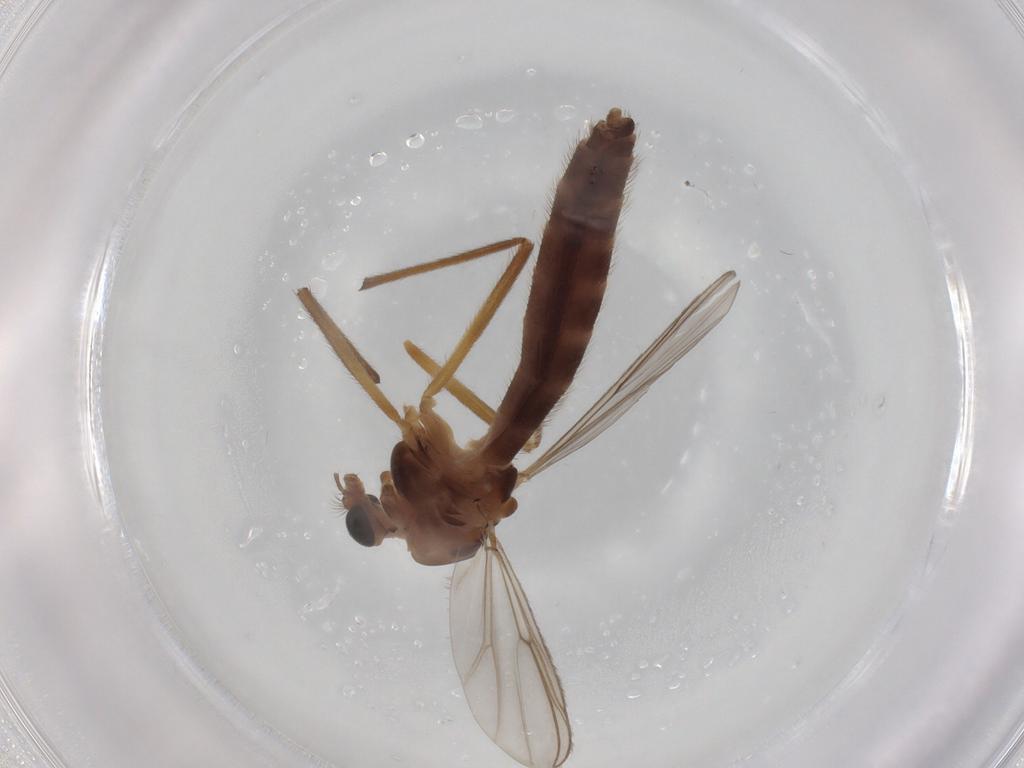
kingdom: Animalia
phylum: Arthropoda
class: Insecta
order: Diptera
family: Chironomidae
